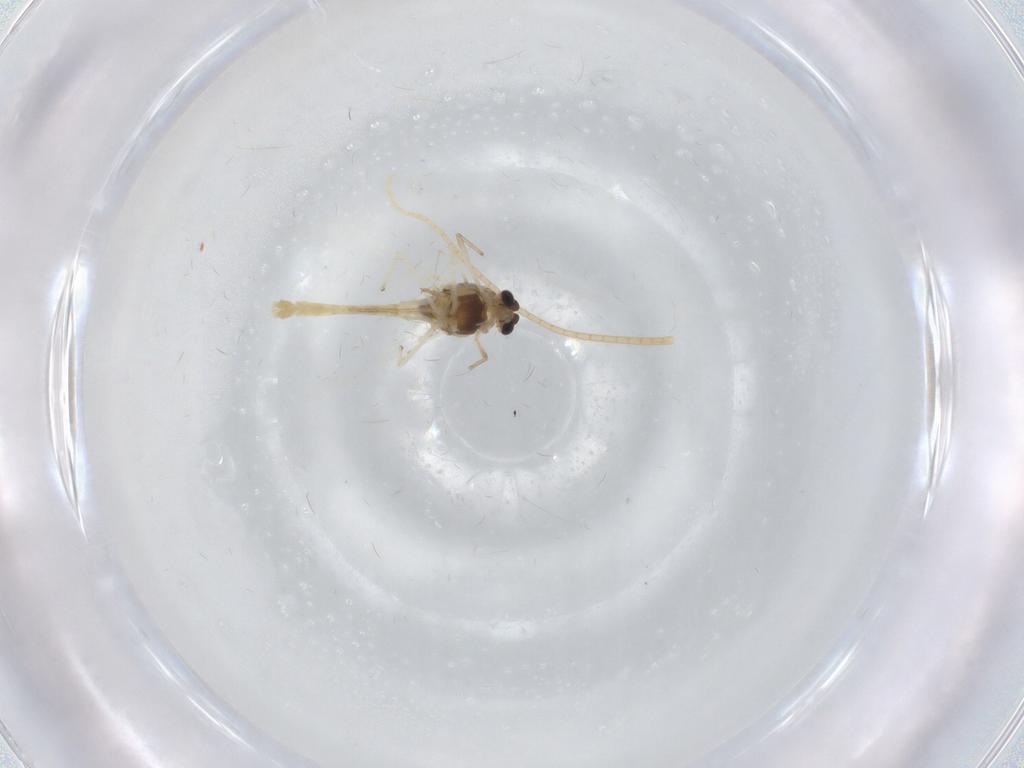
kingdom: Animalia
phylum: Arthropoda
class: Insecta
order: Diptera
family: Chironomidae
